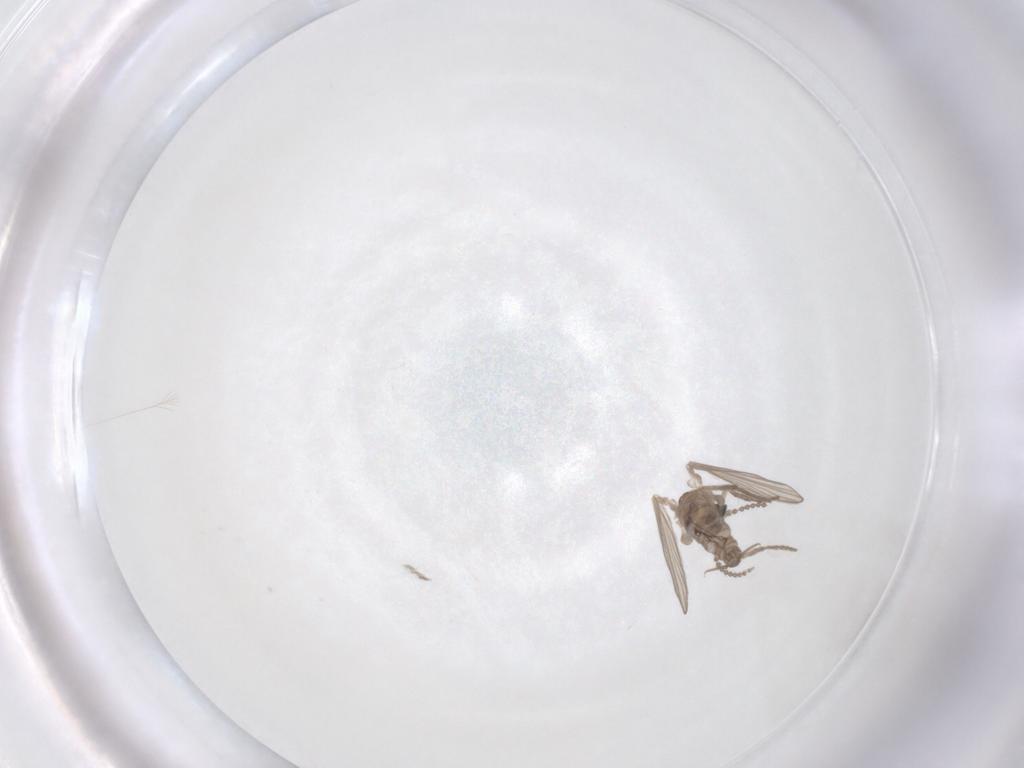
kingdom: Animalia
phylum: Arthropoda
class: Insecta
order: Diptera
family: Psychodidae
